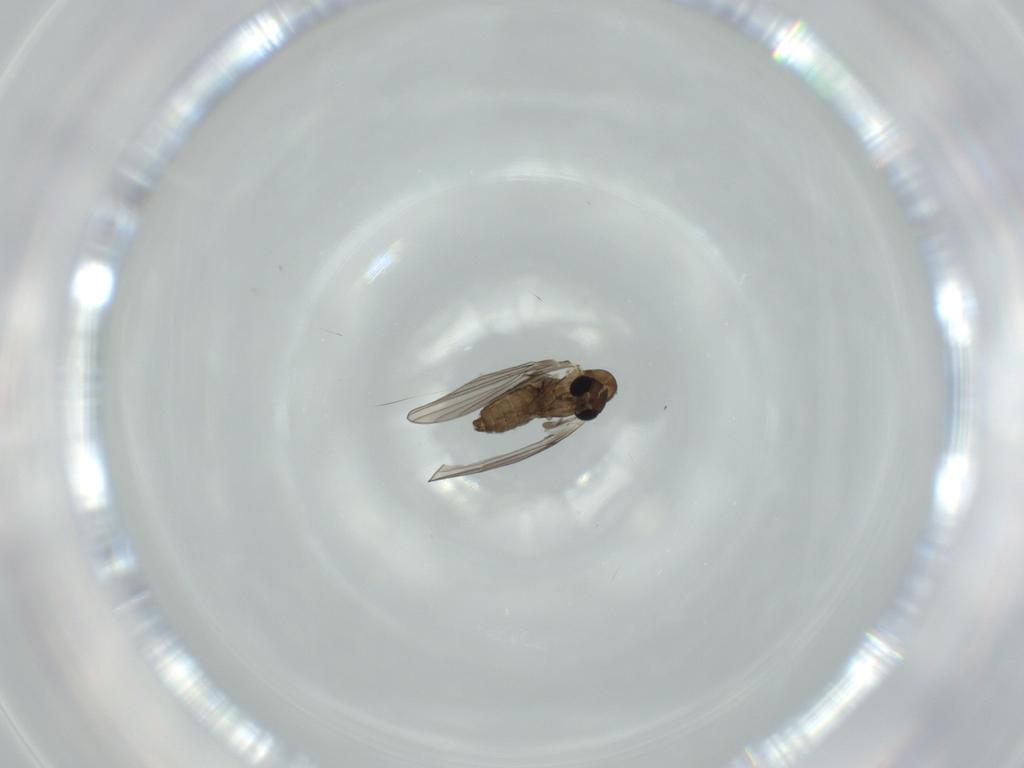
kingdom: Animalia
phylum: Arthropoda
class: Insecta
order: Diptera
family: Psychodidae
